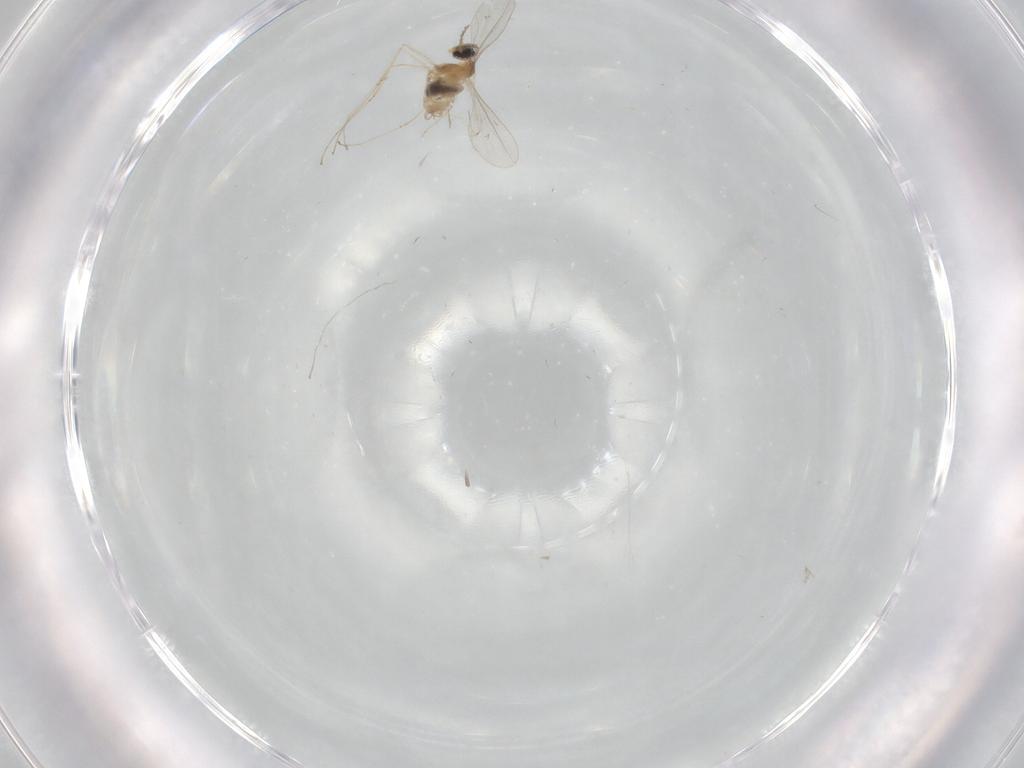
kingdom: Animalia
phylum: Arthropoda
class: Insecta
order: Diptera
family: Cecidomyiidae
